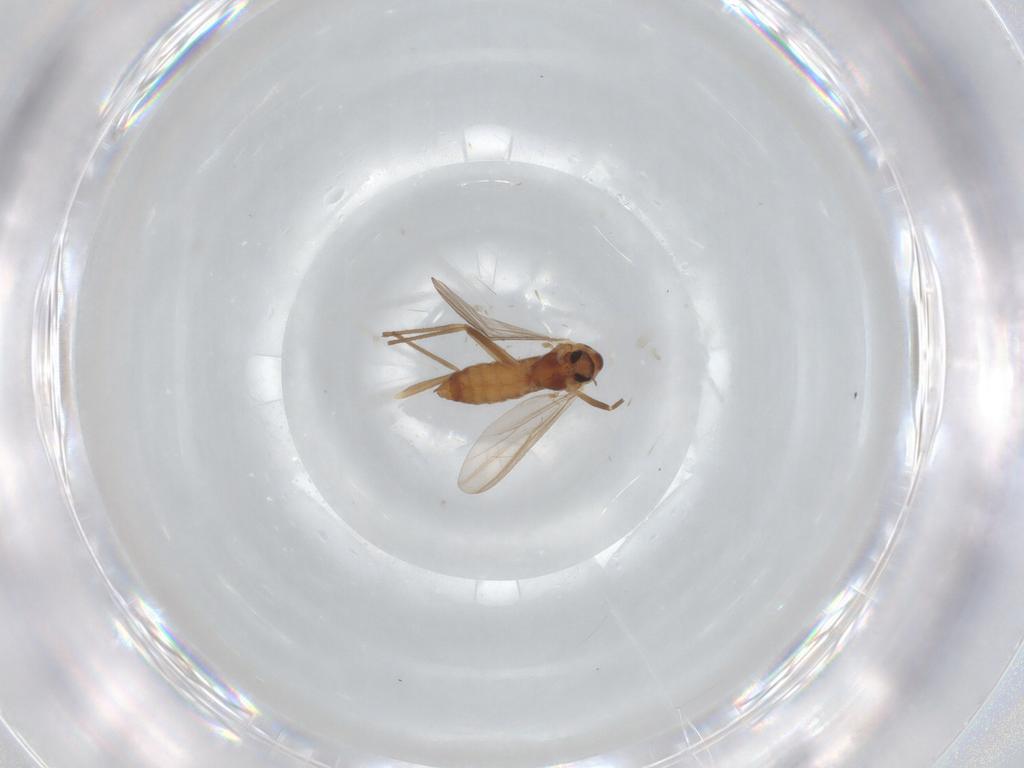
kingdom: Animalia
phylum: Arthropoda
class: Insecta
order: Diptera
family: Chironomidae
